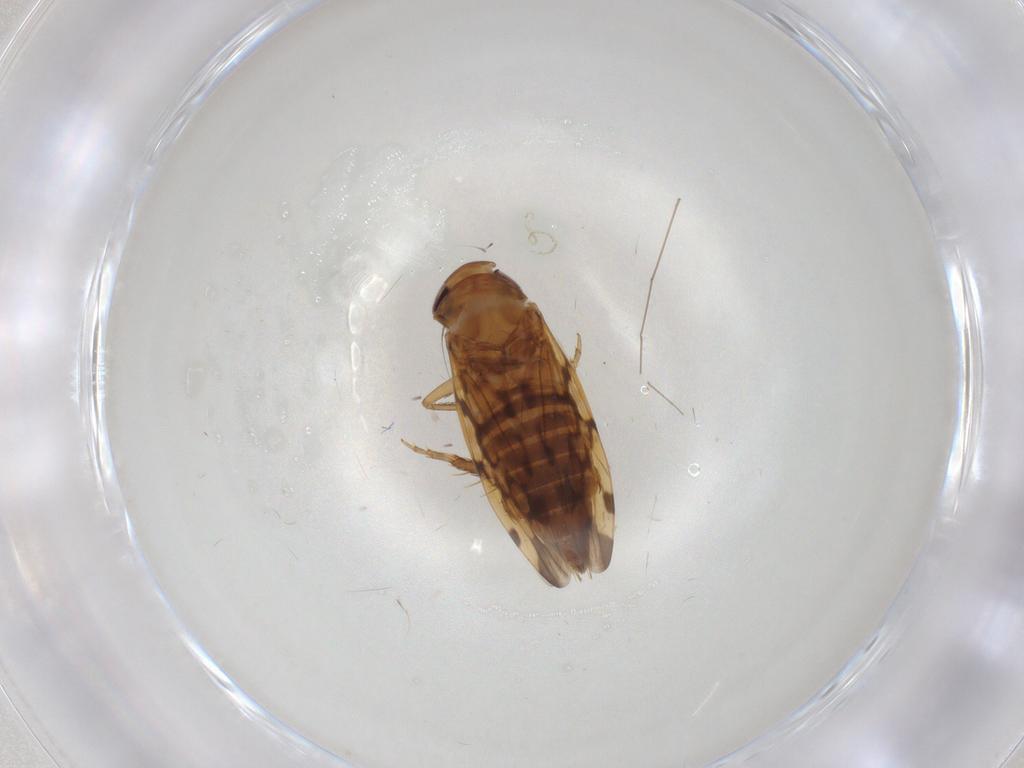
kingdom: Animalia
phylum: Arthropoda
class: Insecta
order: Hemiptera
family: Cicadellidae
